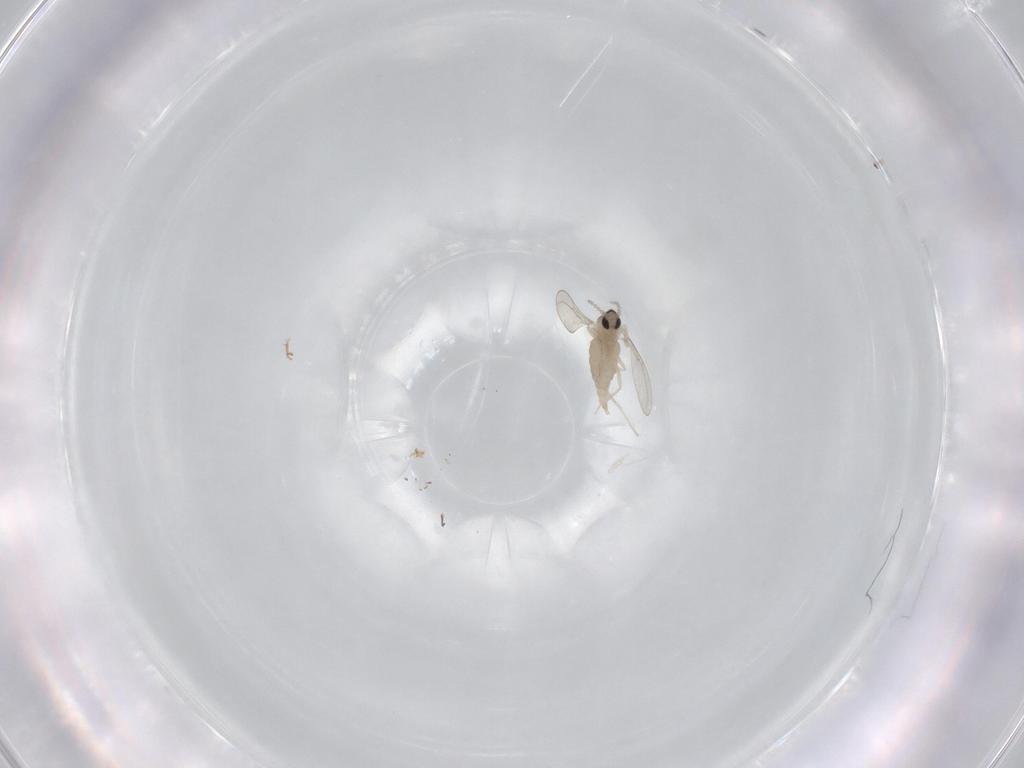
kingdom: Animalia
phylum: Arthropoda
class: Insecta
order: Diptera
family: Cecidomyiidae
